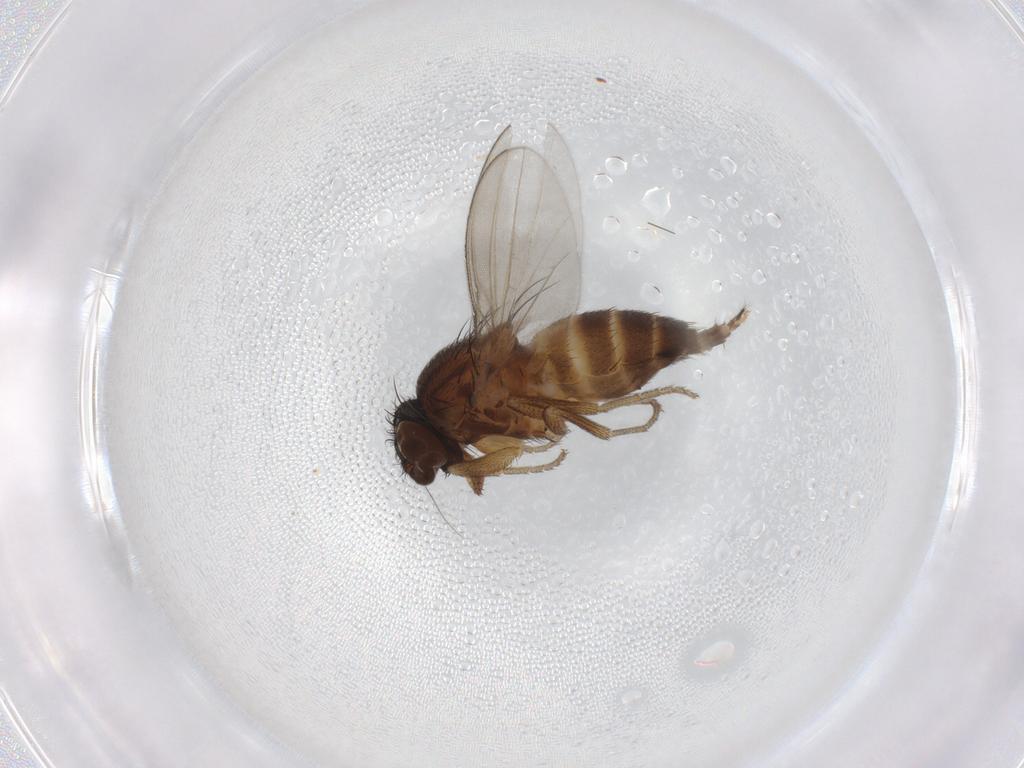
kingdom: Animalia
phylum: Arthropoda
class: Insecta
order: Diptera
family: Milichiidae
